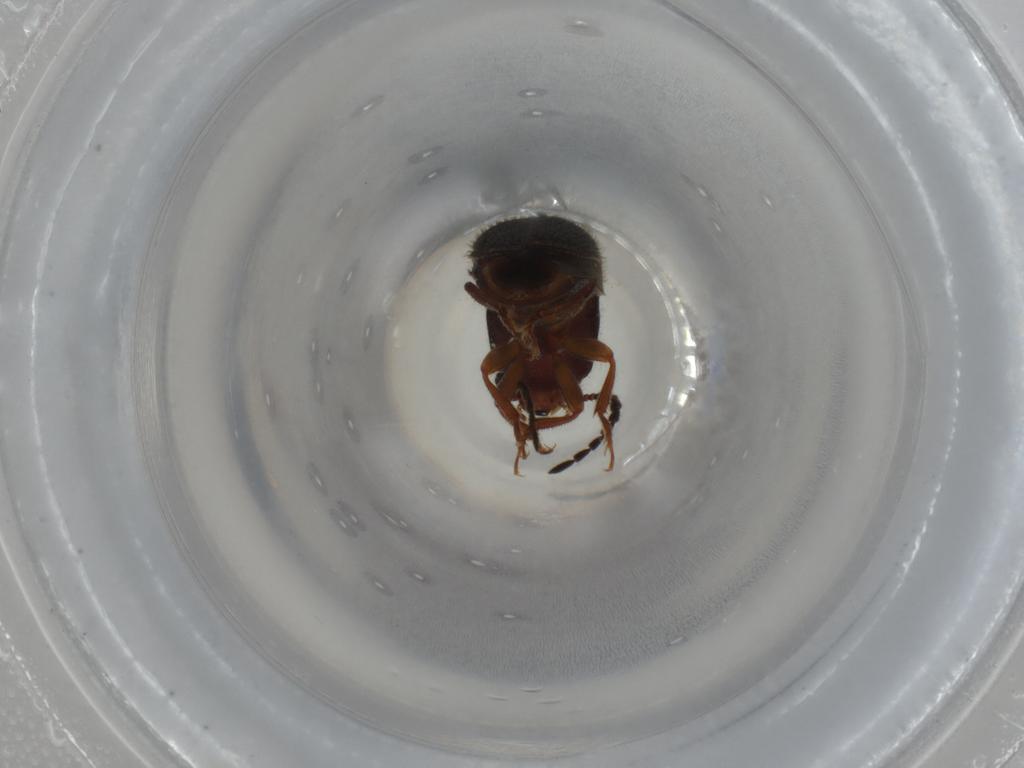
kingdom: Animalia
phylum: Arthropoda
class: Insecta
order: Coleoptera
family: Elateridae
